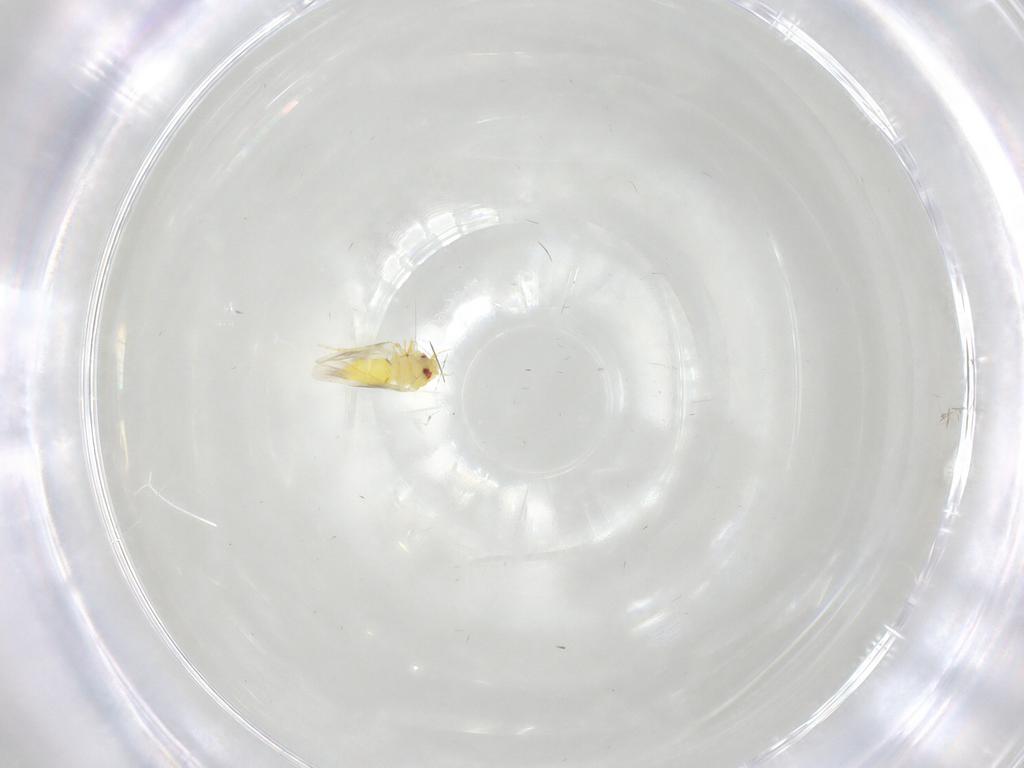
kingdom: Animalia
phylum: Arthropoda
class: Insecta
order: Hemiptera
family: Aleyrodidae
